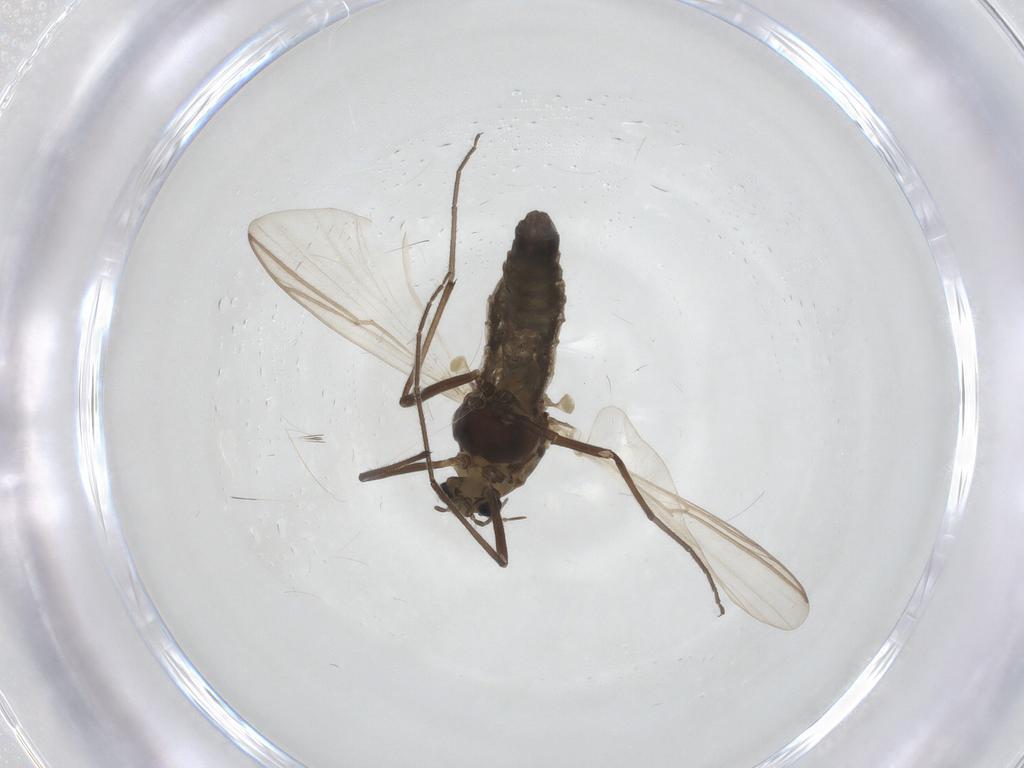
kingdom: Animalia
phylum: Arthropoda
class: Insecta
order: Diptera
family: Chironomidae
